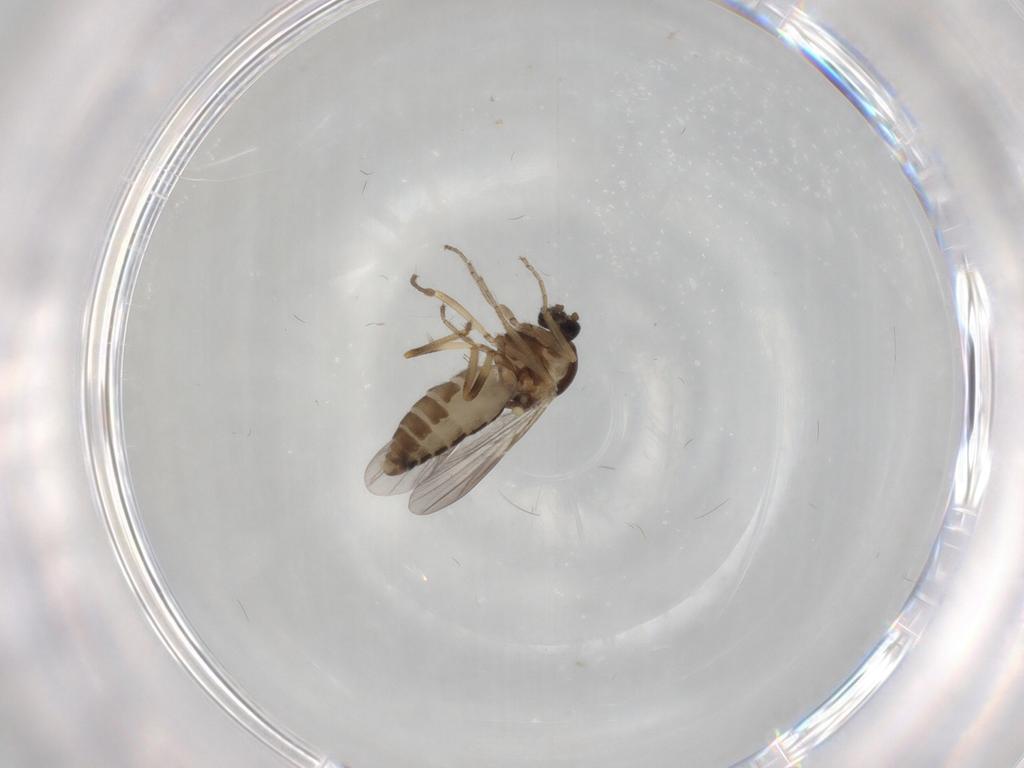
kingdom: Animalia
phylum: Arthropoda
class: Insecta
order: Diptera
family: Ceratopogonidae
